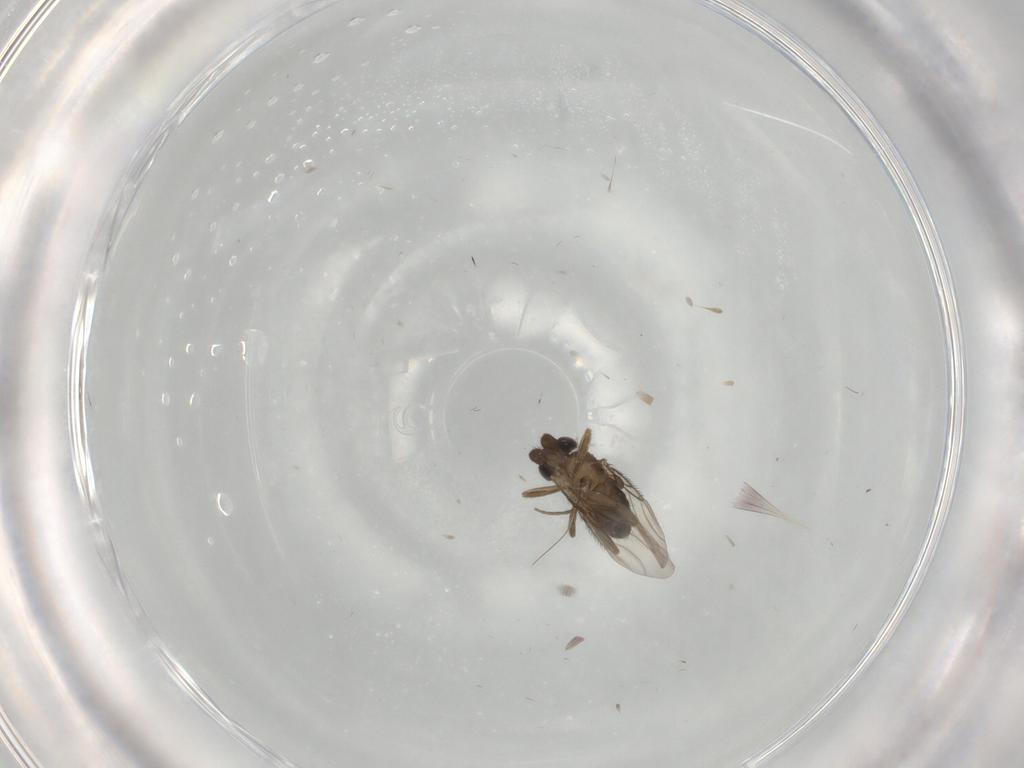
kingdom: Animalia
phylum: Arthropoda
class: Insecta
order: Diptera
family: Phoridae
